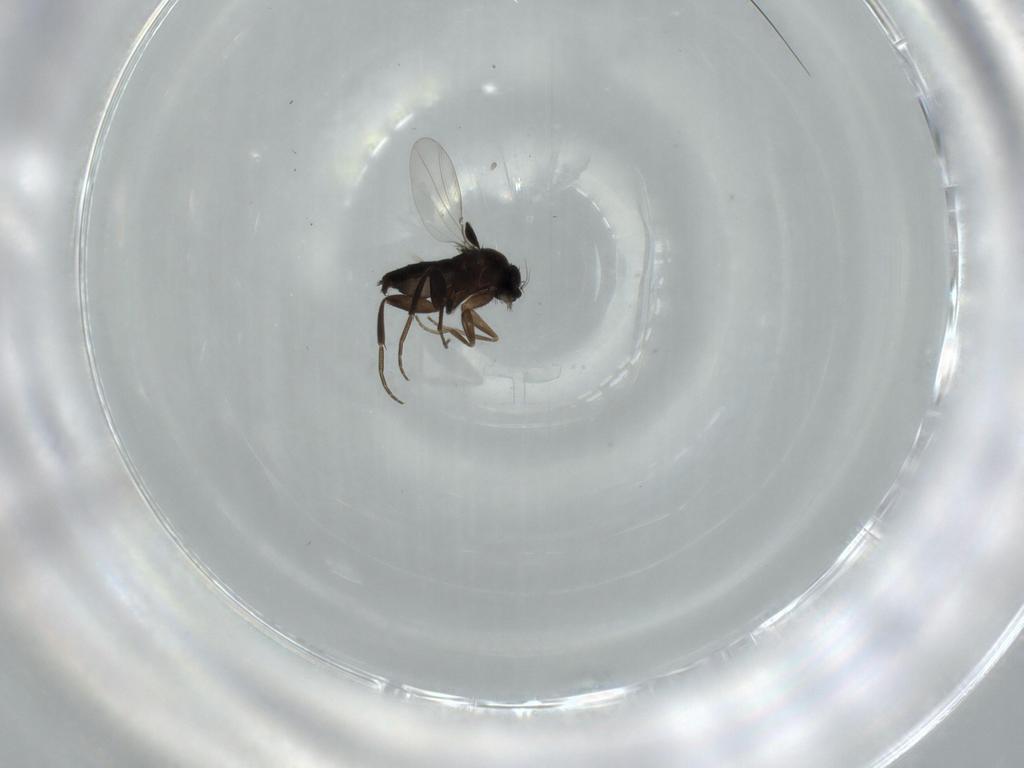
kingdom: Animalia
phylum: Arthropoda
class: Insecta
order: Diptera
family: Phoridae
